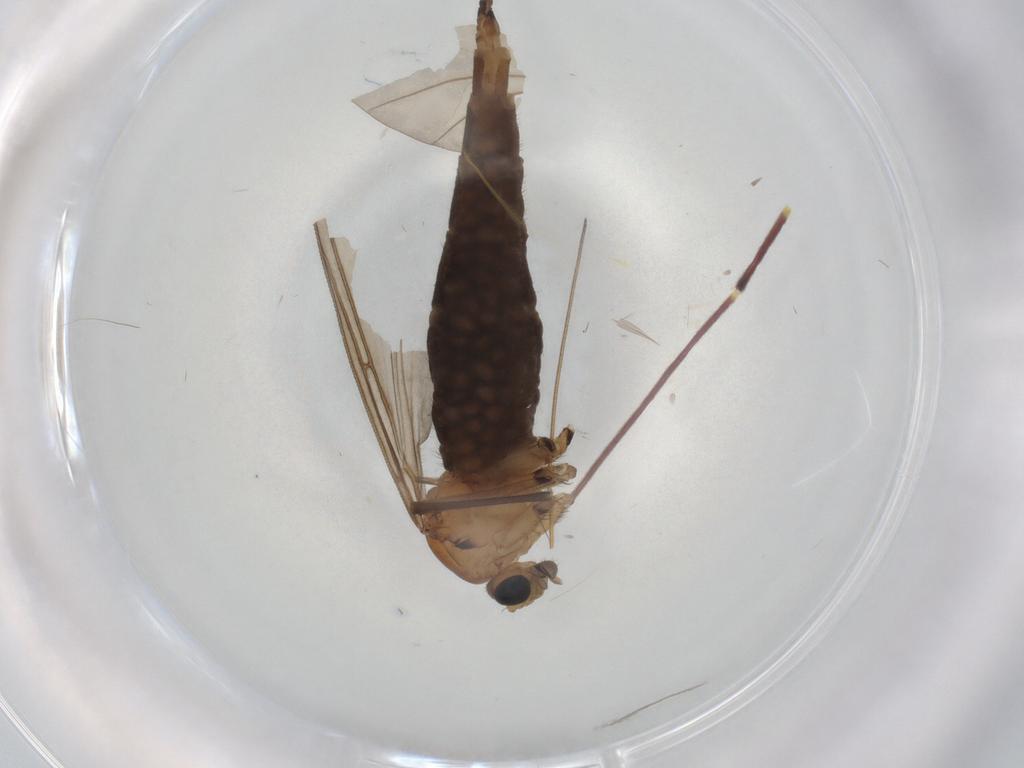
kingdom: Animalia
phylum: Arthropoda
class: Insecta
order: Diptera
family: Sciaridae
